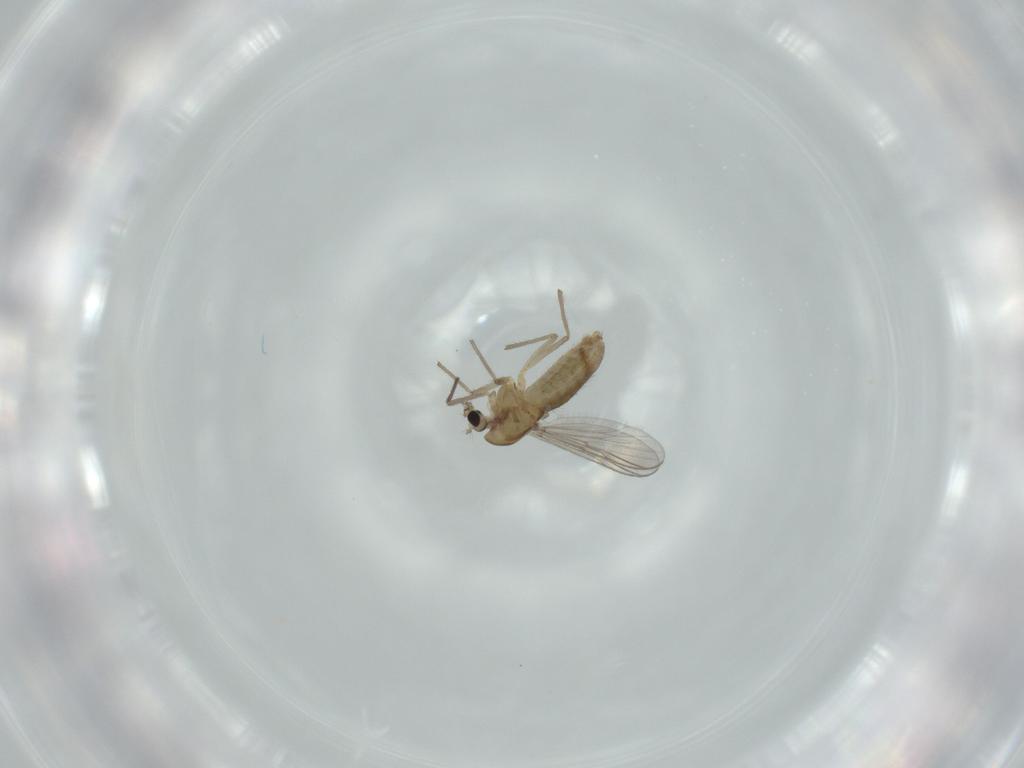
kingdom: Animalia
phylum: Arthropoda
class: Insecta
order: Diptera
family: Chironomidae
